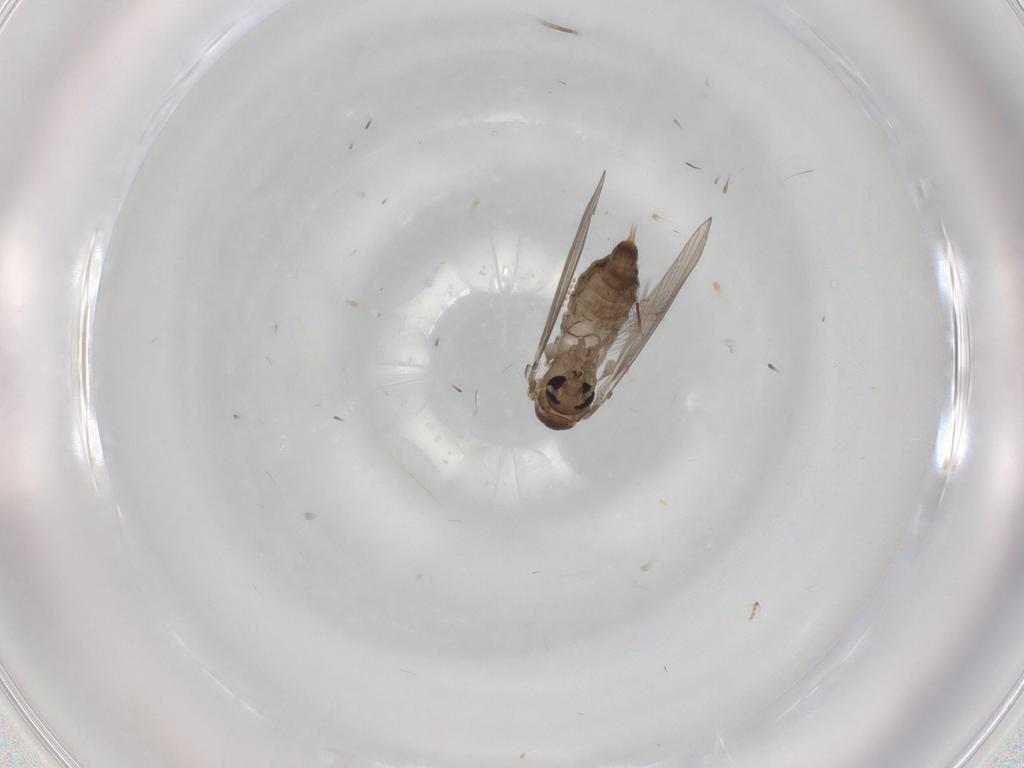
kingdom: Animalia
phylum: Arthropoda
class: Insecta
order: Diptera
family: Psychodidae
